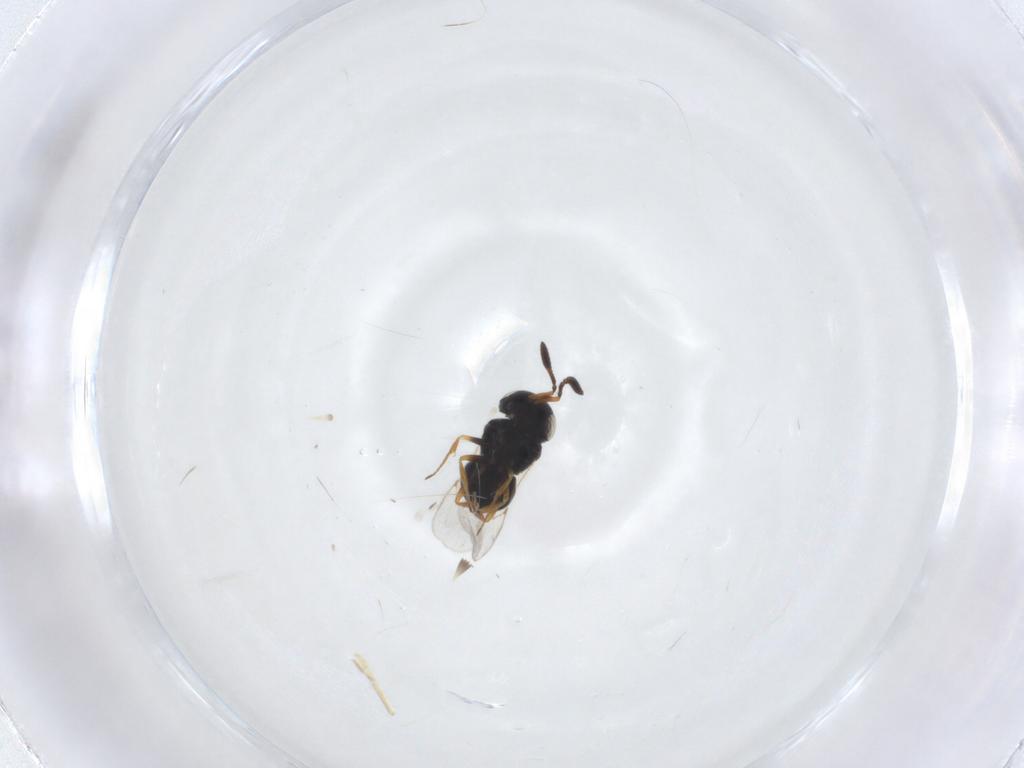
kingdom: Animalia
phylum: Arthropoda
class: Insecta
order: Hymenoptera
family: Scelionidae
